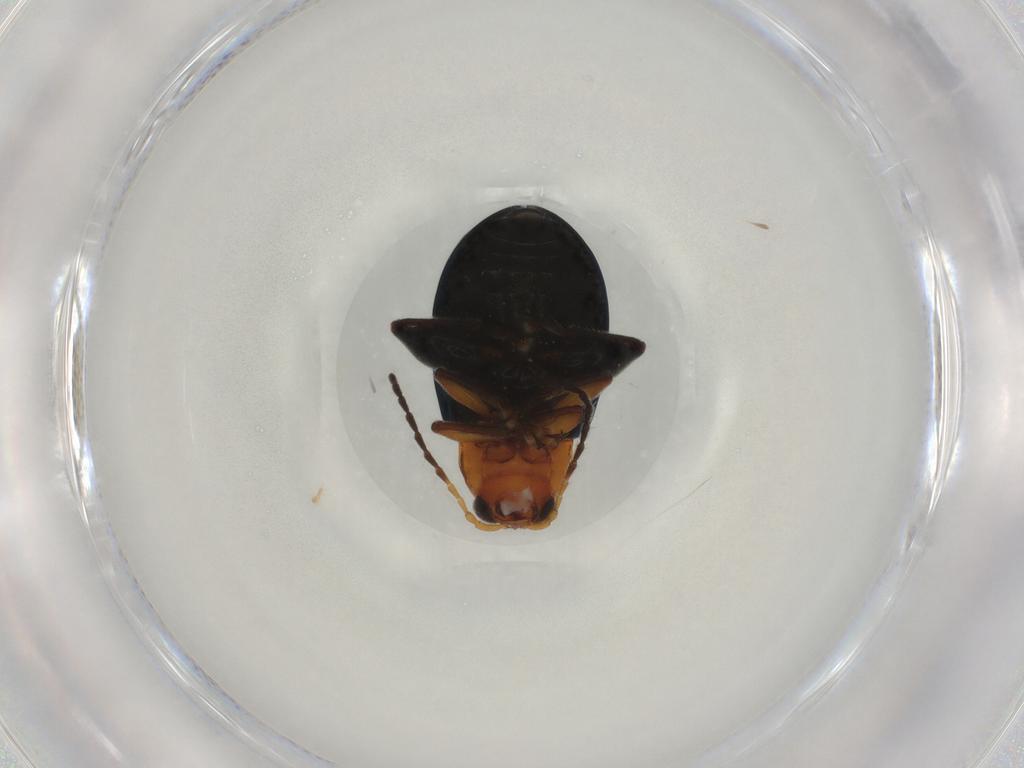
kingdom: Animalia
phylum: Arthropoda
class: Insecta
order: Coleoptera
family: Chrysomelidae
